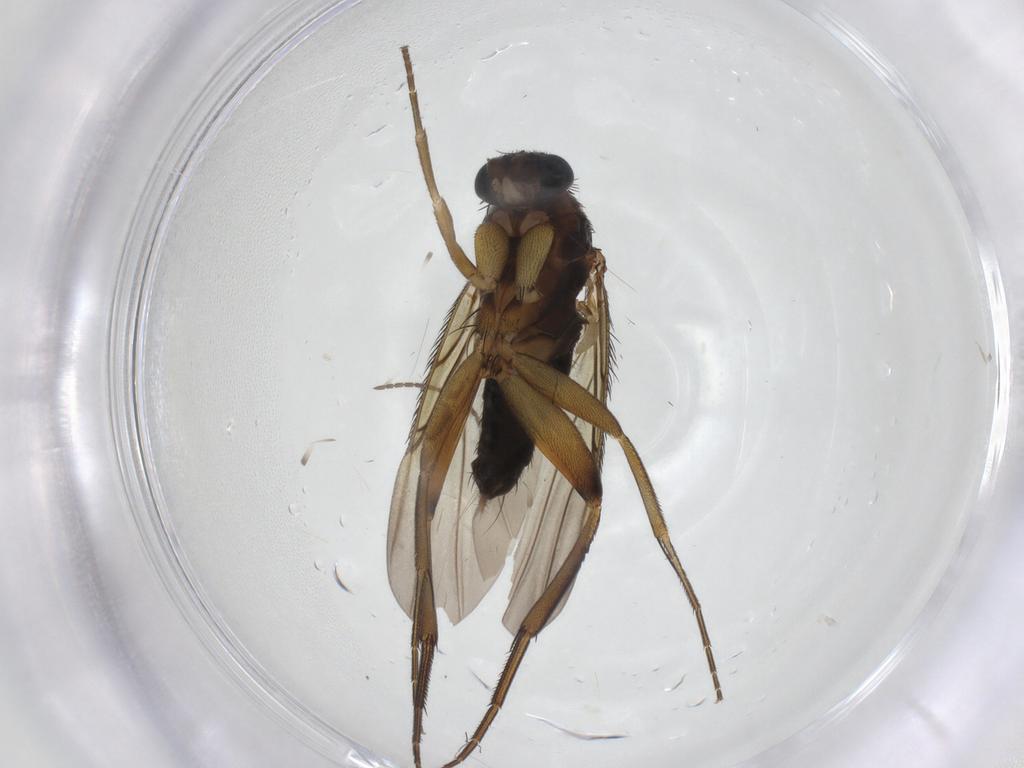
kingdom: Animalia
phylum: Arthropoda
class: Insecta
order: Diptera
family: Phoridae
